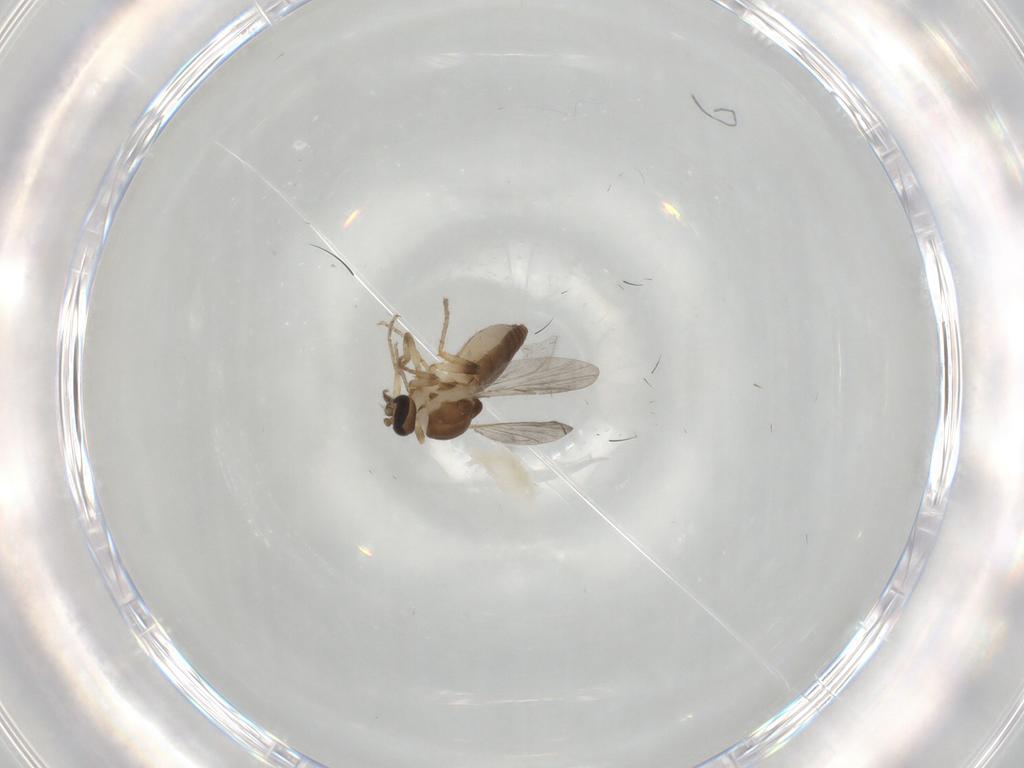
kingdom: Animalia
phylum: Arthropoda
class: Insecta
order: Diptera
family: Ceratopogonidae
